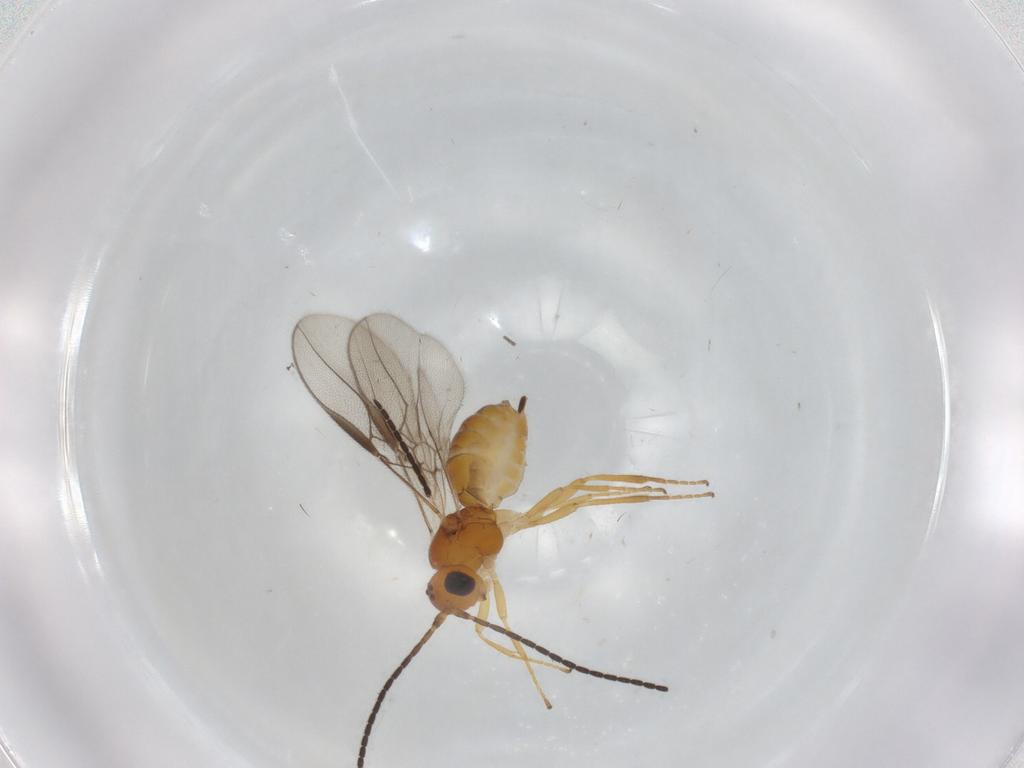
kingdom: Animalia
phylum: Arthropoda
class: Insecta
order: Hymenoptera
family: Braconidae
